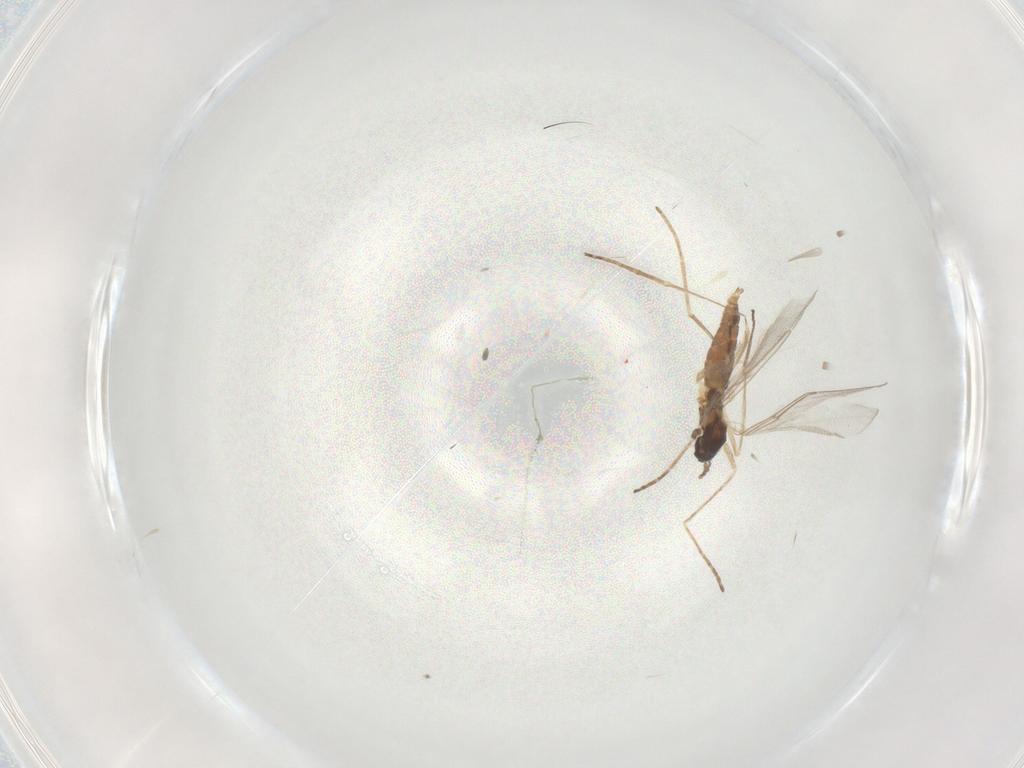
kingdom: Animalia
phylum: Arthropoda
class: Insecta
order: Diptera
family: Cecidomyiidae
